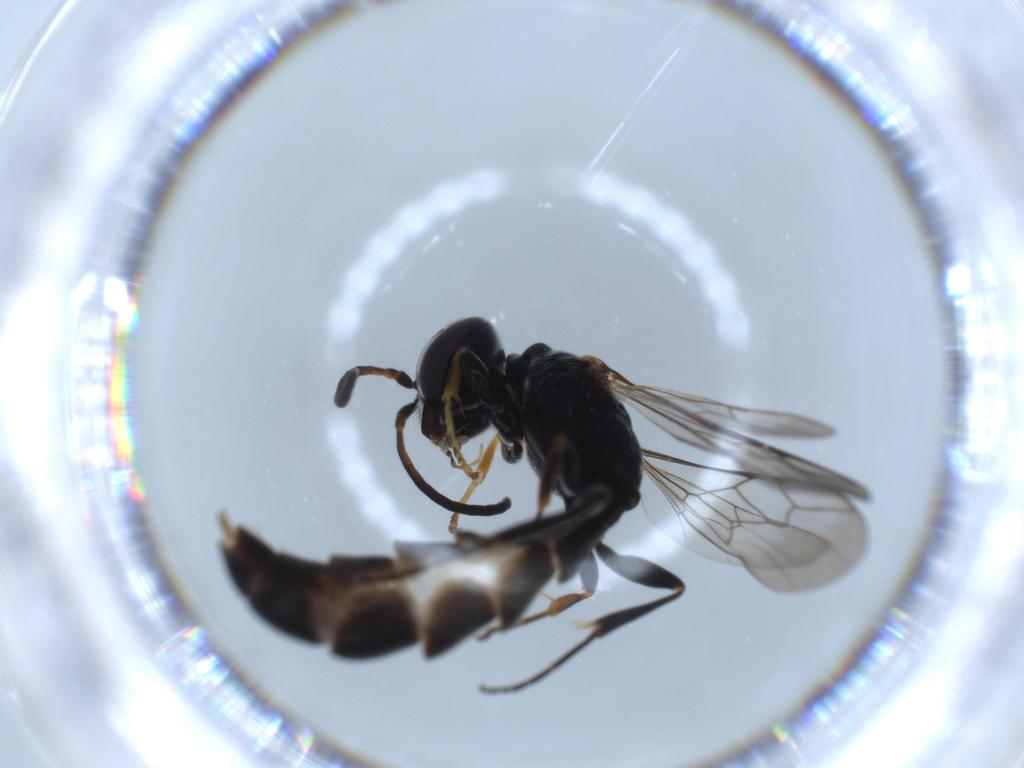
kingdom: Animalia
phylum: Arthropoda
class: Insecta
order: Hymenoptera
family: Crabronidae
